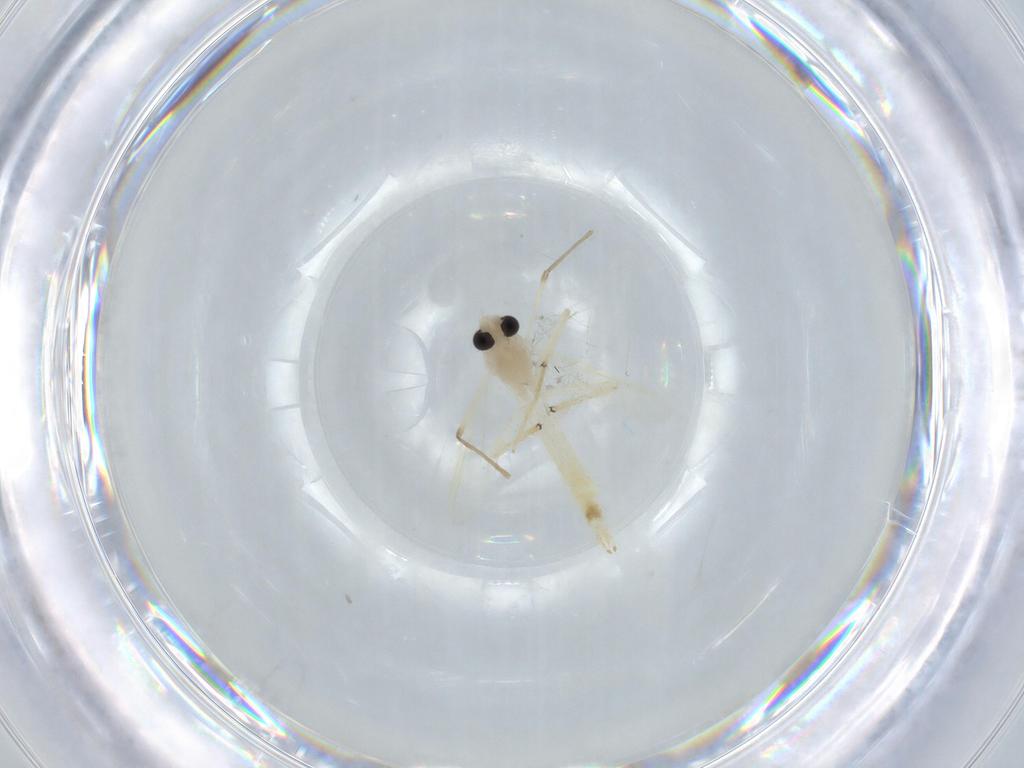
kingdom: Animalia
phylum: Arthropoda
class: Insecta
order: Diptera
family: Chironomidae
